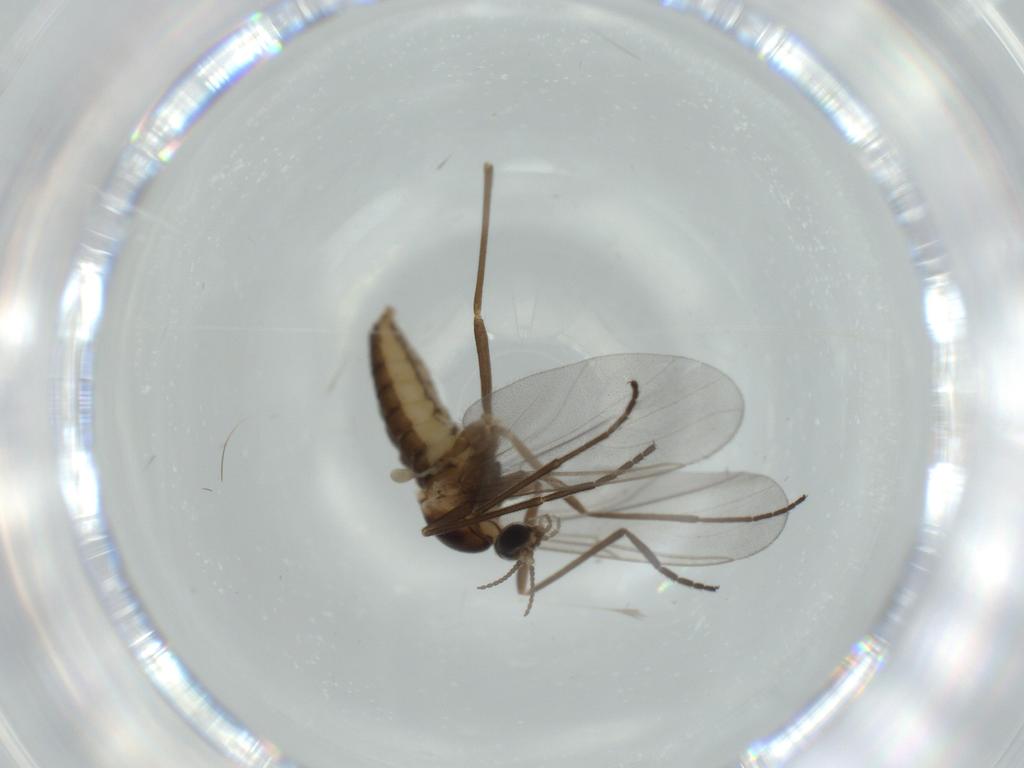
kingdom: Animalia
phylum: Arthropoda
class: Insecta
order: Diptera
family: Cecidomyiidae
